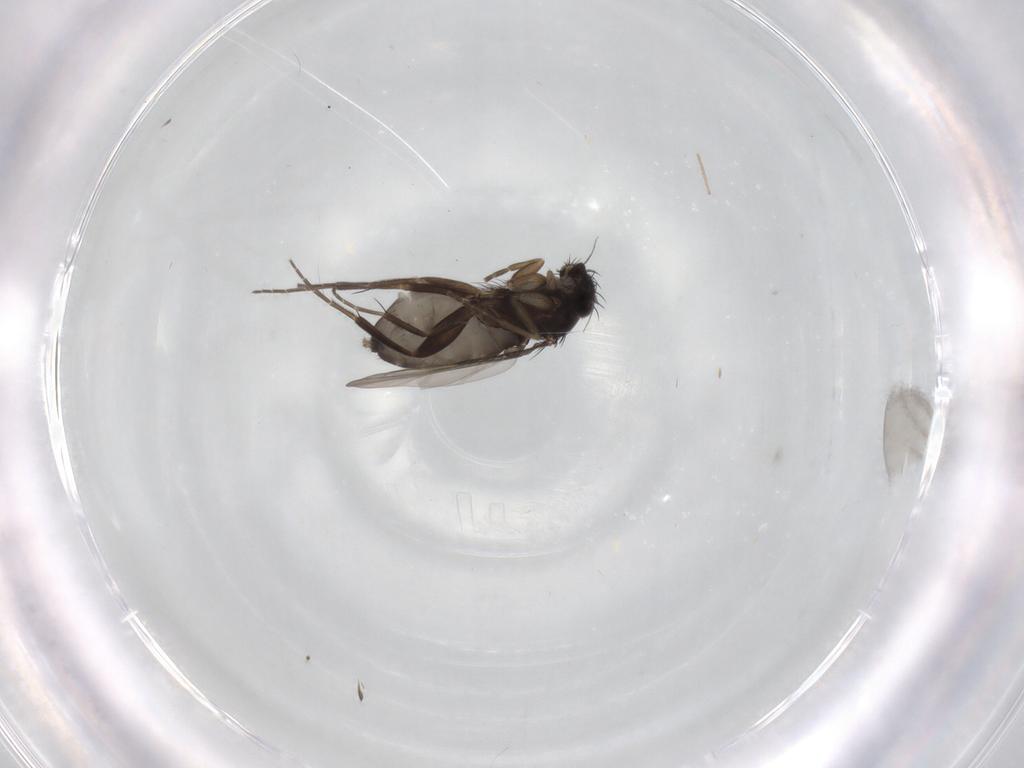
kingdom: Animalia
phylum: Arthropoda
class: Insecta
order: Diptera
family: Phoridae
